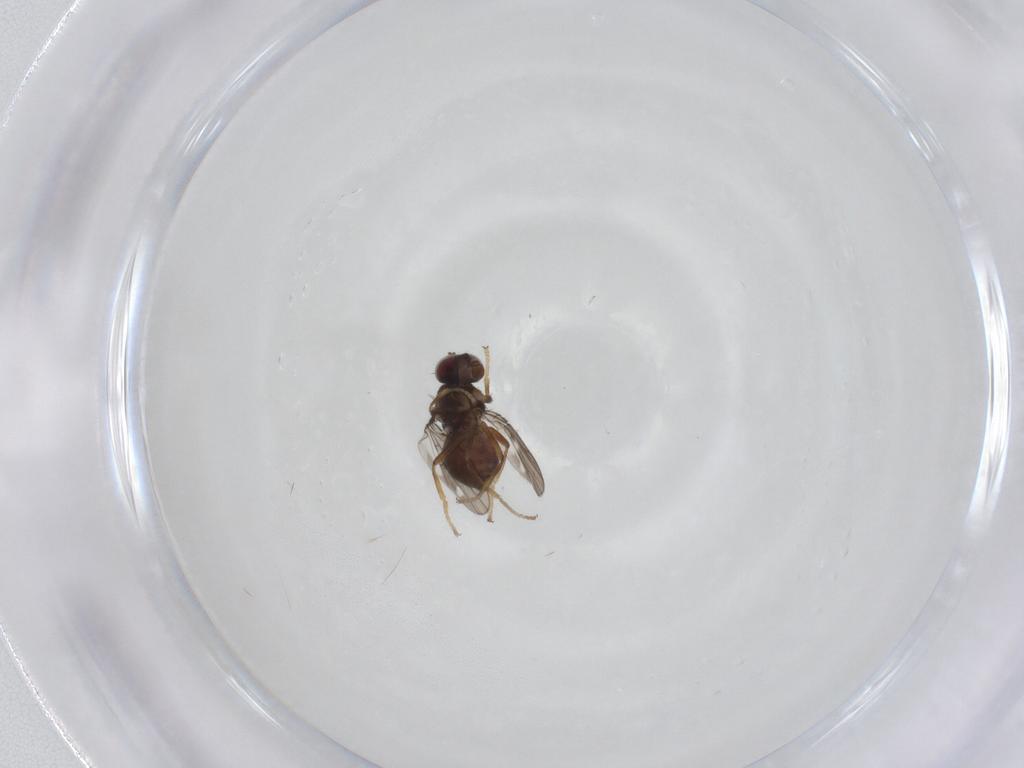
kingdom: Animalia
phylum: Arthropoda
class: Insecta
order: Diptera
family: Ephydridae
